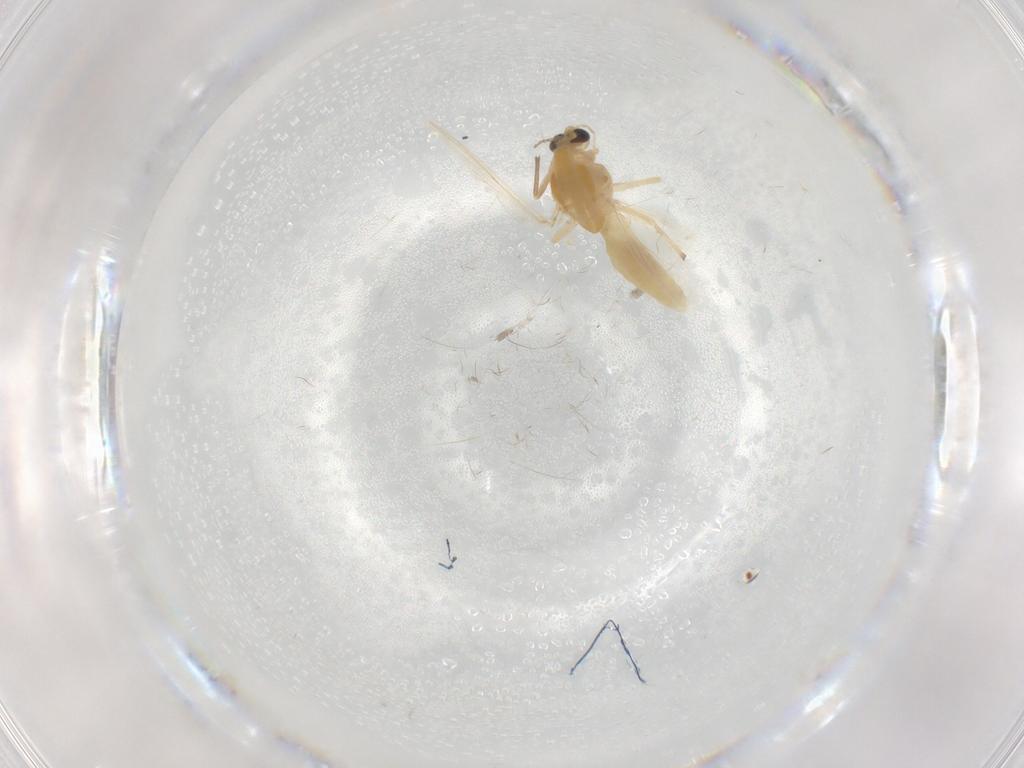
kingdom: Animalia
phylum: Arthropoda
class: Insecta
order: Diptera
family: Chironomidae
